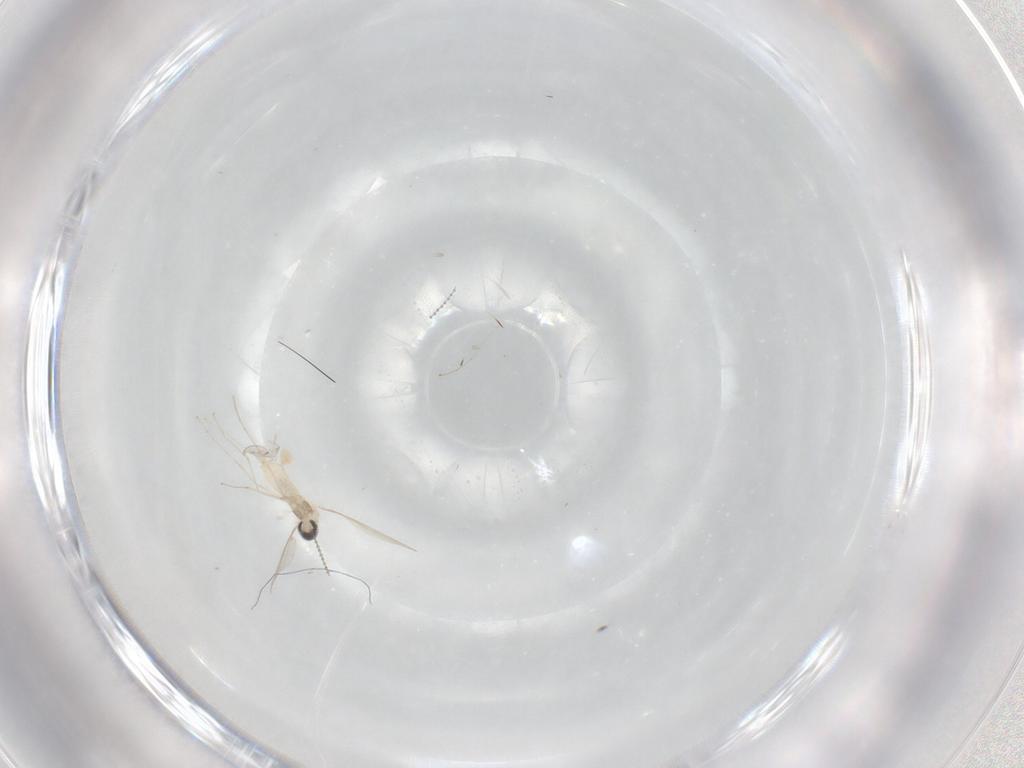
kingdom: Animalia
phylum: Arthropoda
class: Insecta
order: Diptera
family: Cecidomyiidae
